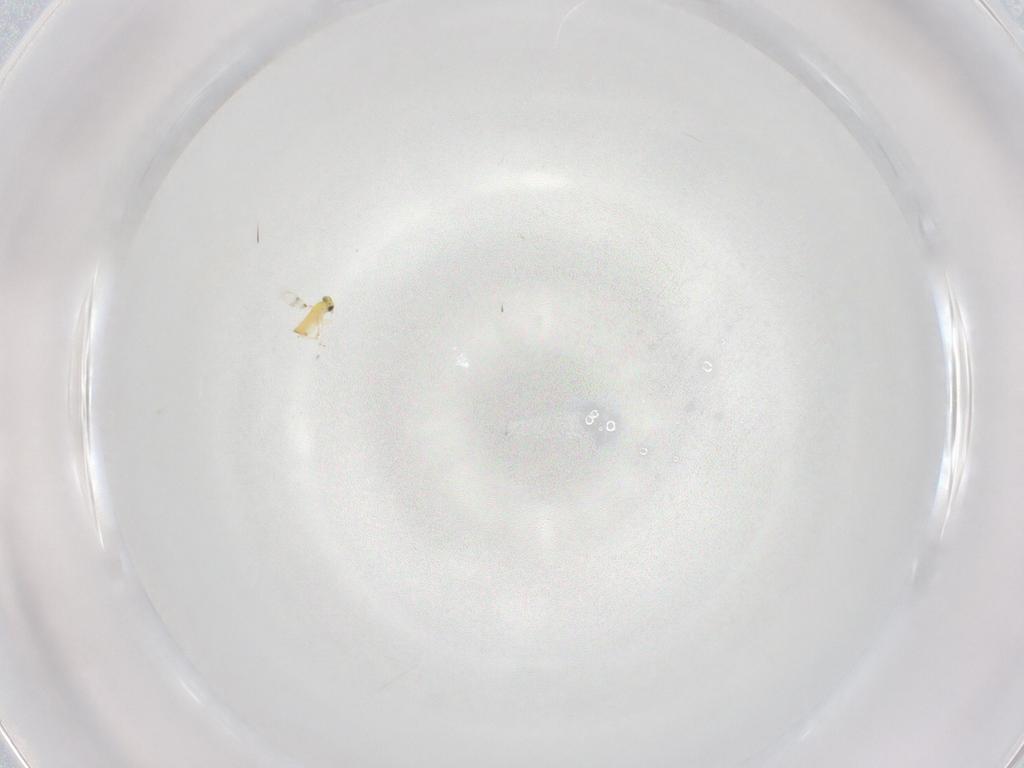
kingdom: Animalia
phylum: Arthropoda
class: Insecta
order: Hymenoptera
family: Trichogrammatidae
